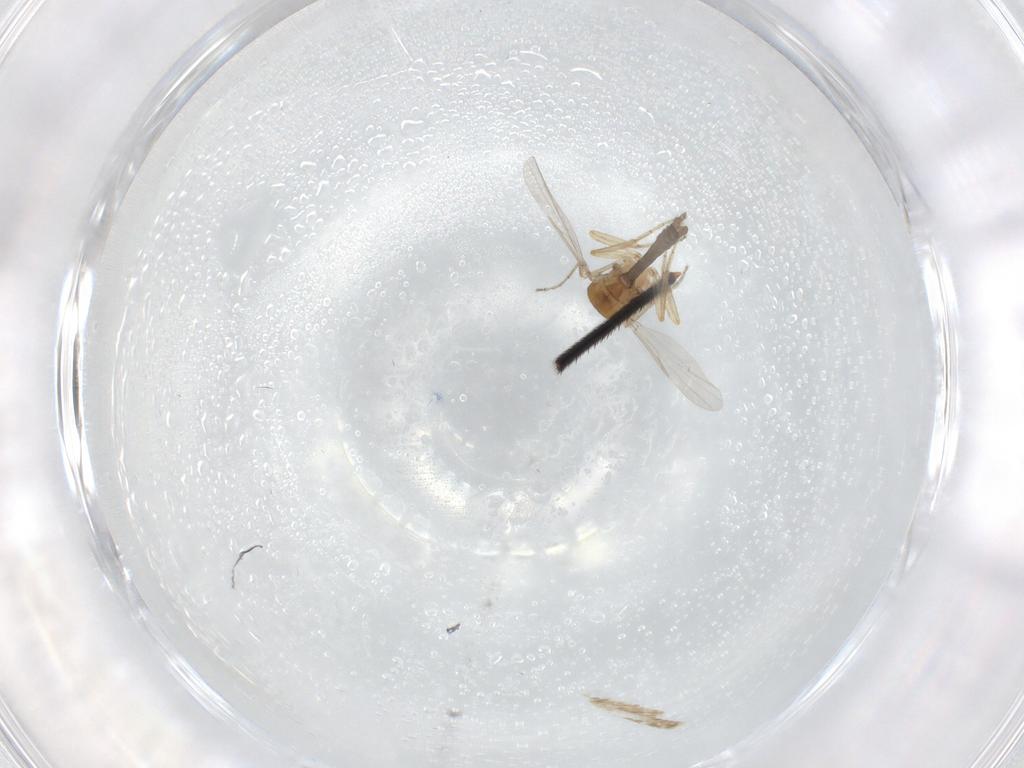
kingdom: Animalia
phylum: Arthropoda
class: Insecta
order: Diptera
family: Ceratopogonidae
